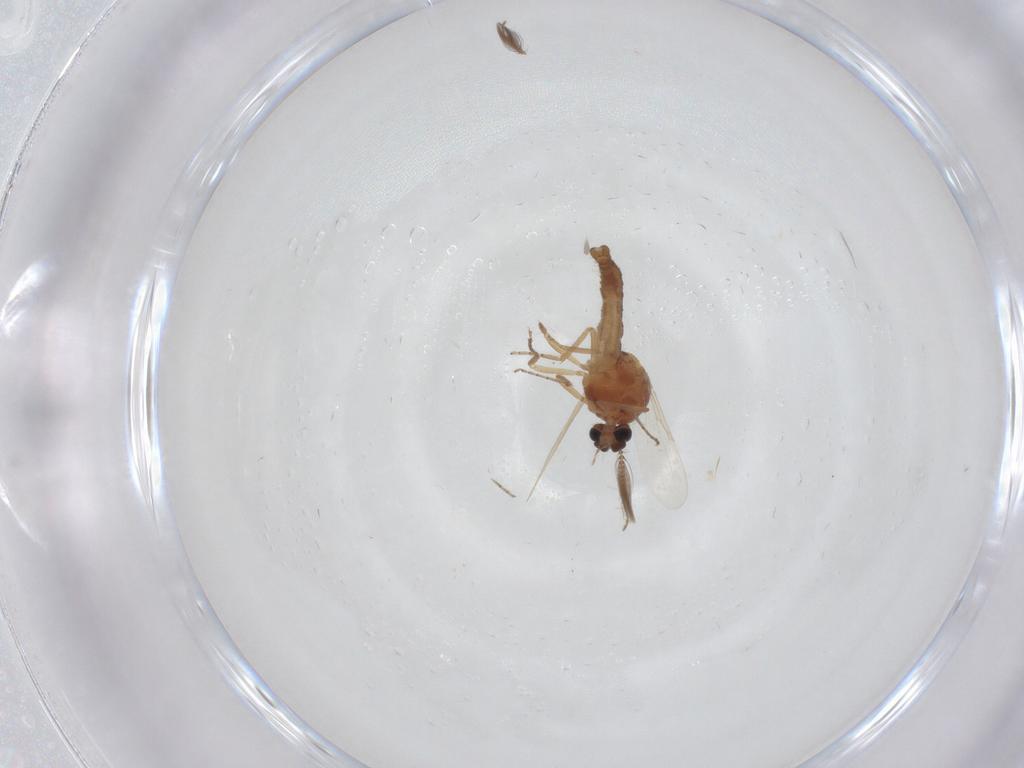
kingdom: Animalia
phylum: Arthropoda
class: Insecta
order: Diptera
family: Ceratopogonidae
